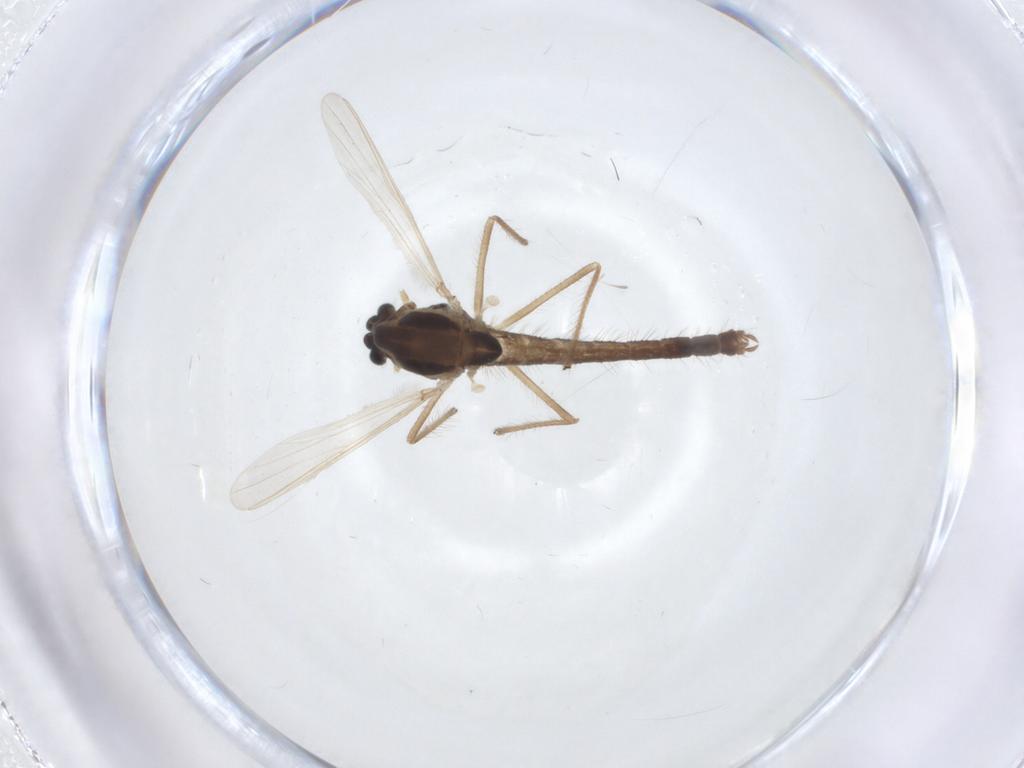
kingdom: Animalia
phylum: Arthropoda
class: Insecta
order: Diptera
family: Chironomidae
